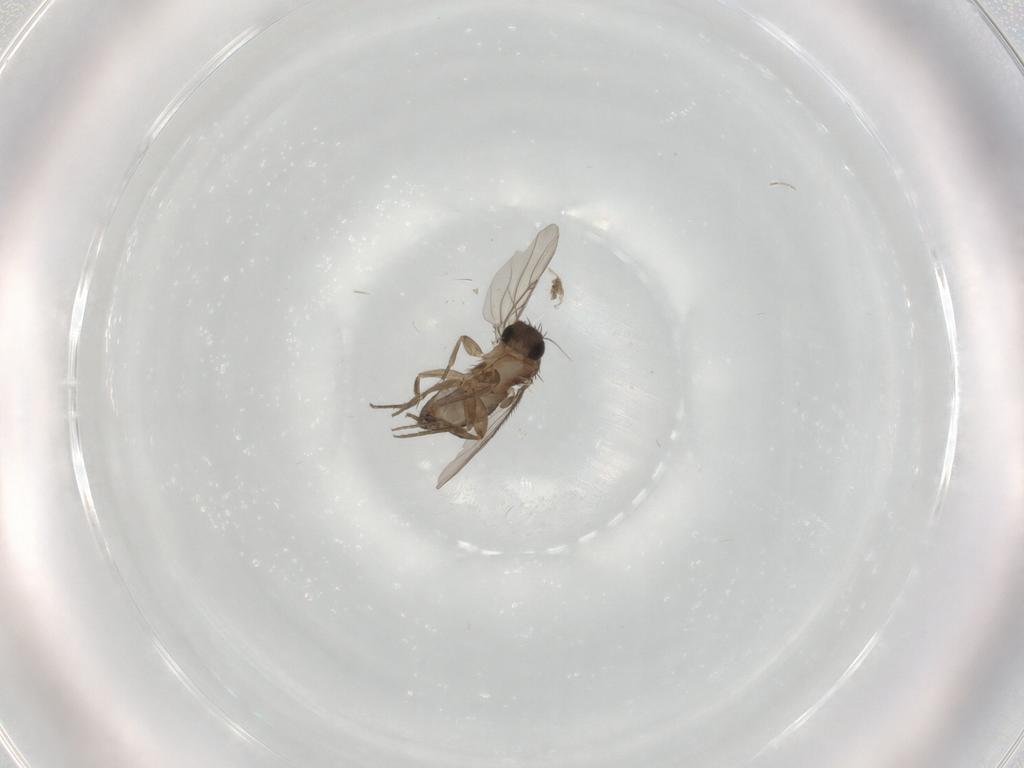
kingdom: Animalia
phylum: Arthropoda
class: Insecta
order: Diptera
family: Phoridae
